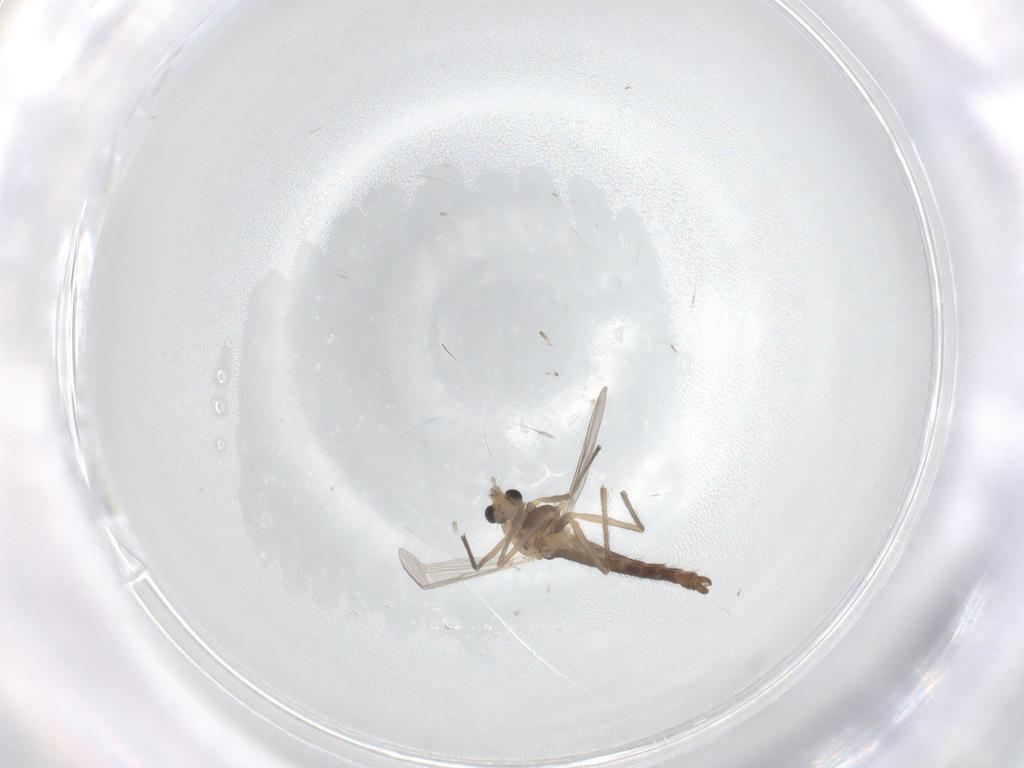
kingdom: Animalia
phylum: Arthropoda
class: Insecta
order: Diptera
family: Chironomidae
